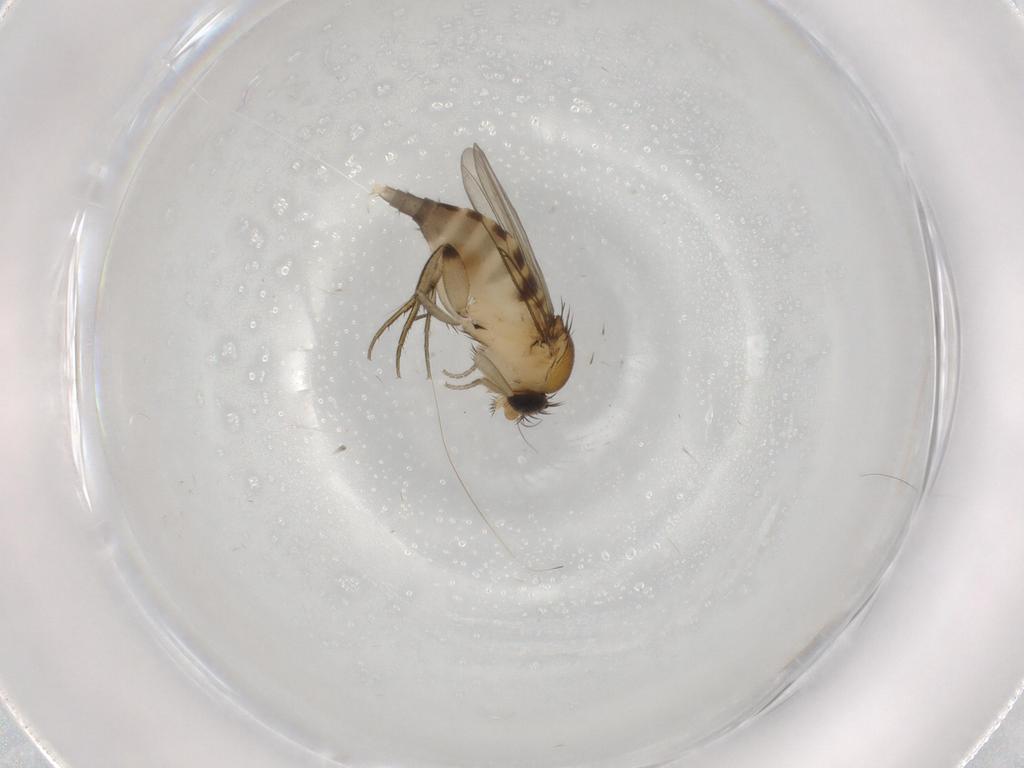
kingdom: Animalia
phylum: Arthropoda
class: Insecta
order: Diptera
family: Phoridae
